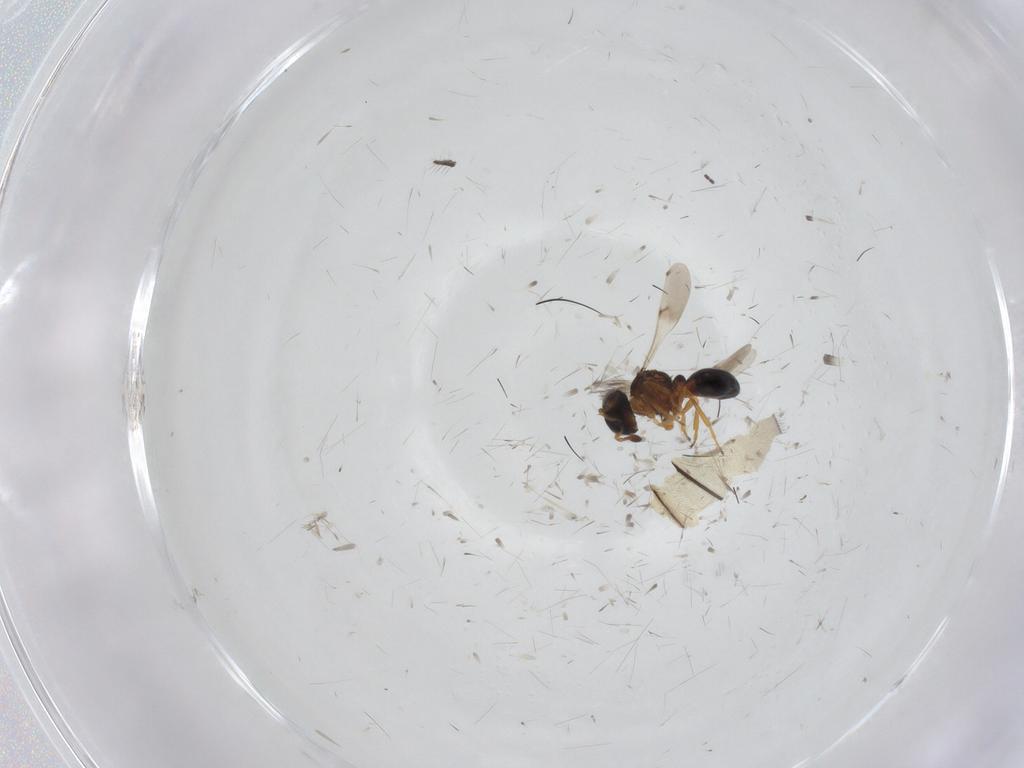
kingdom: Animalia
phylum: Arthropoda
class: Insecta
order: Hymenoptera
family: Scelionidae
